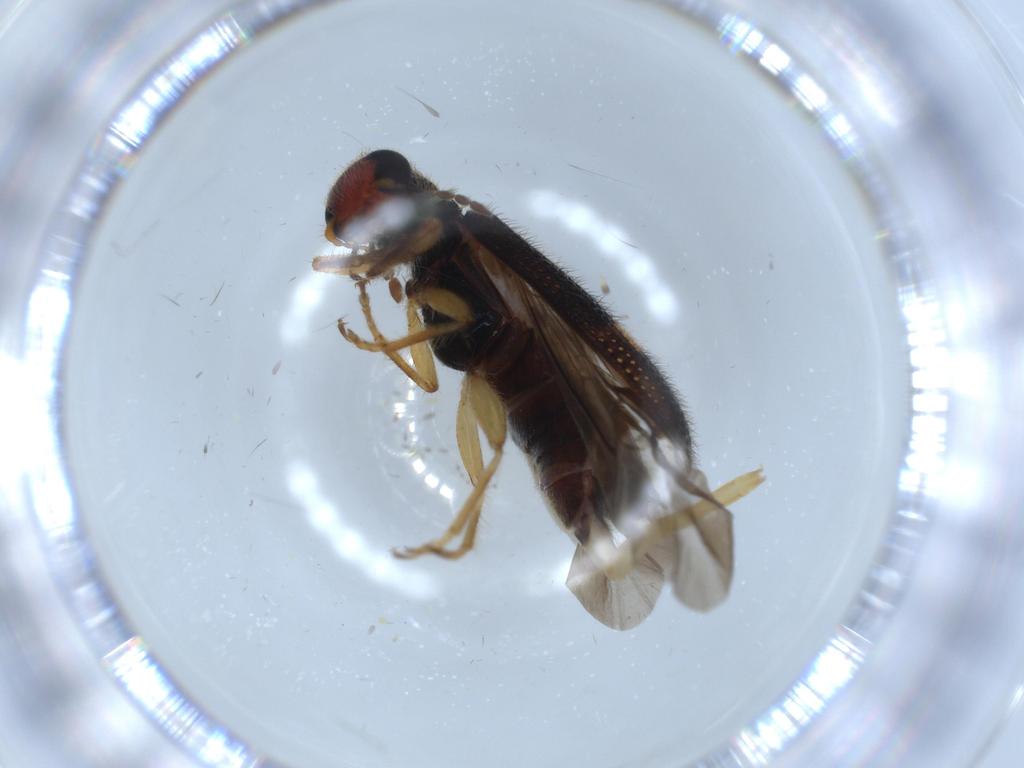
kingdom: Animalia
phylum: Arthropoda
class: Insecta
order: Coleoptera
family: Cleridae
